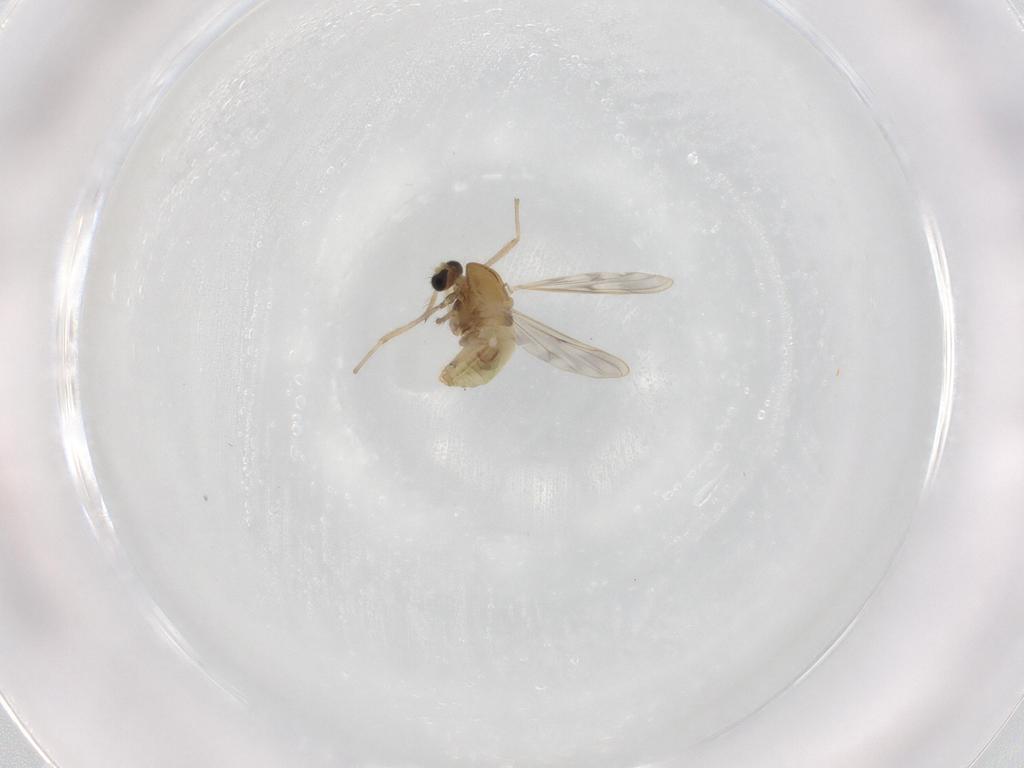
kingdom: Animalia
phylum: Arthropoda
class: Insecta
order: Diptera
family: Chironomidae
